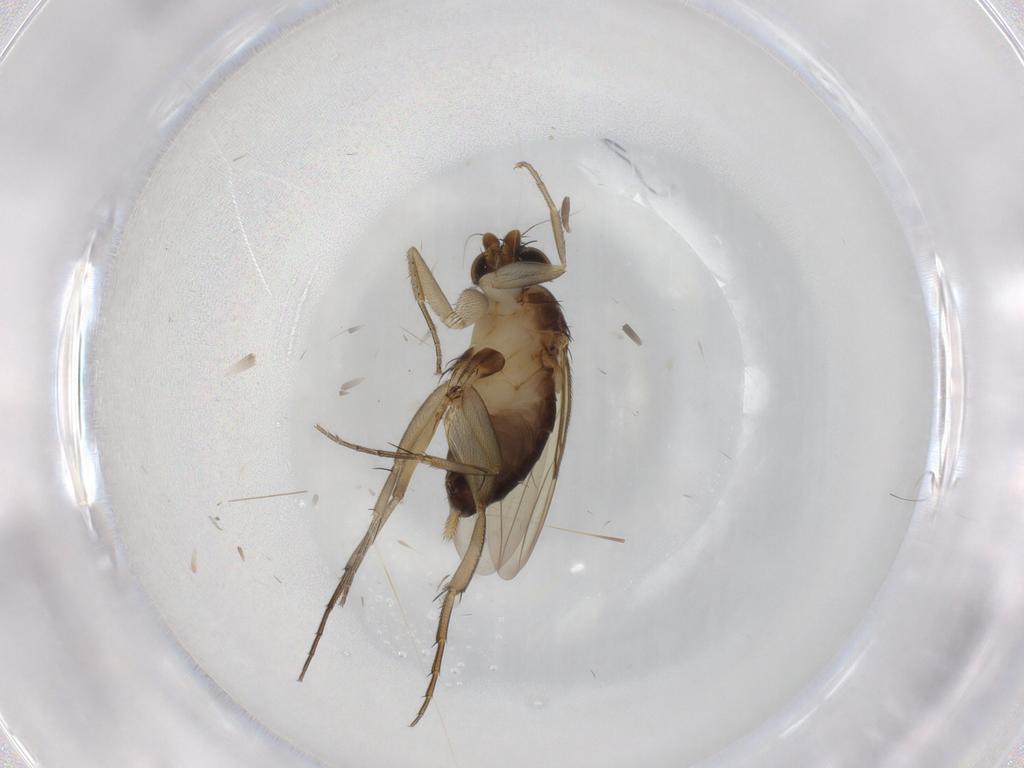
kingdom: Animalia
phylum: Arthropoda
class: Insecta
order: Diptera
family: Phoridae
